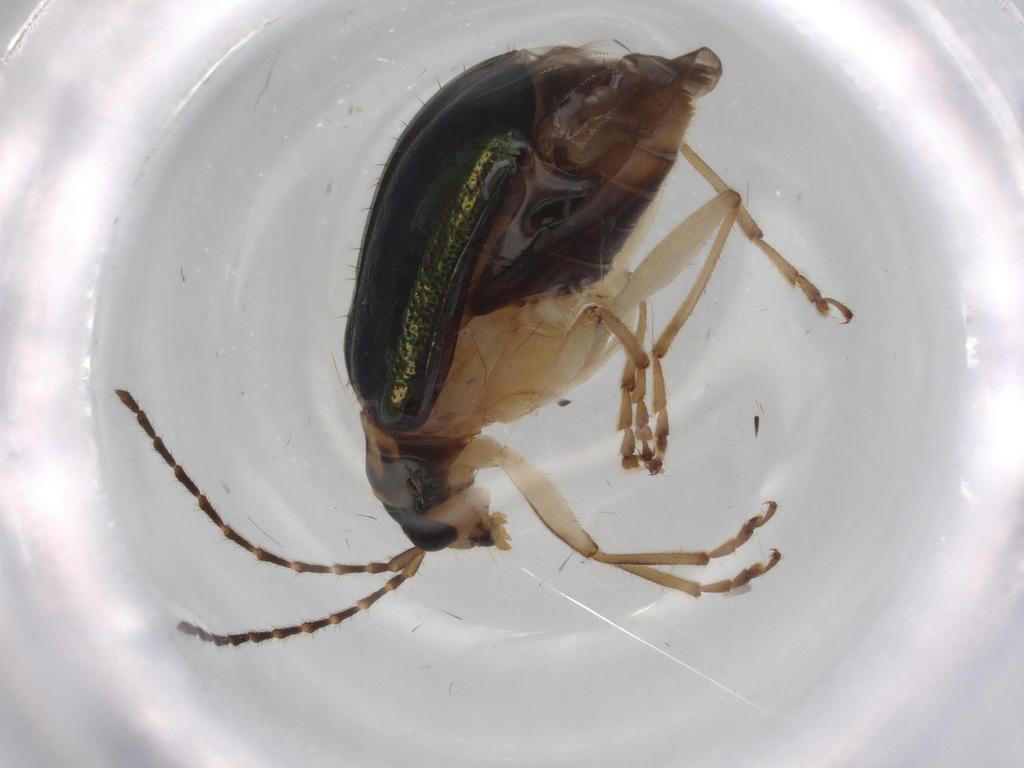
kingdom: Animalia
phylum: Arthropoda
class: Insecta
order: Coleoptera
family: Chrysomelidae
